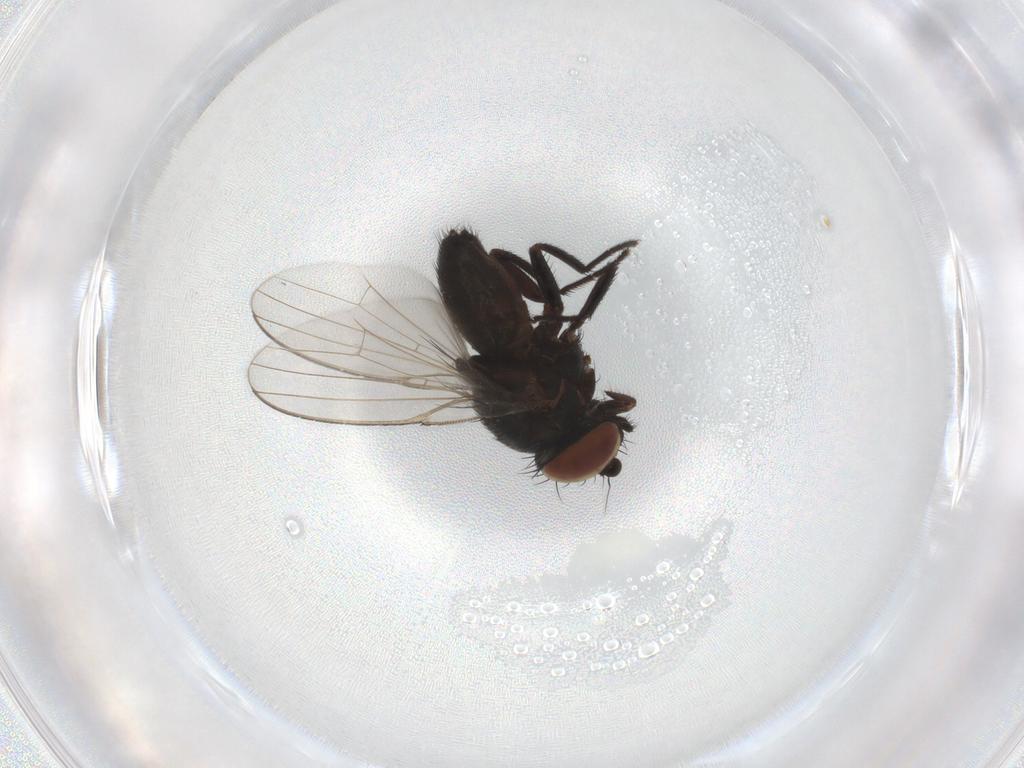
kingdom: Animalia
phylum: Arthropoda
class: Insecta
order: Diptera
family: Milichiidae
